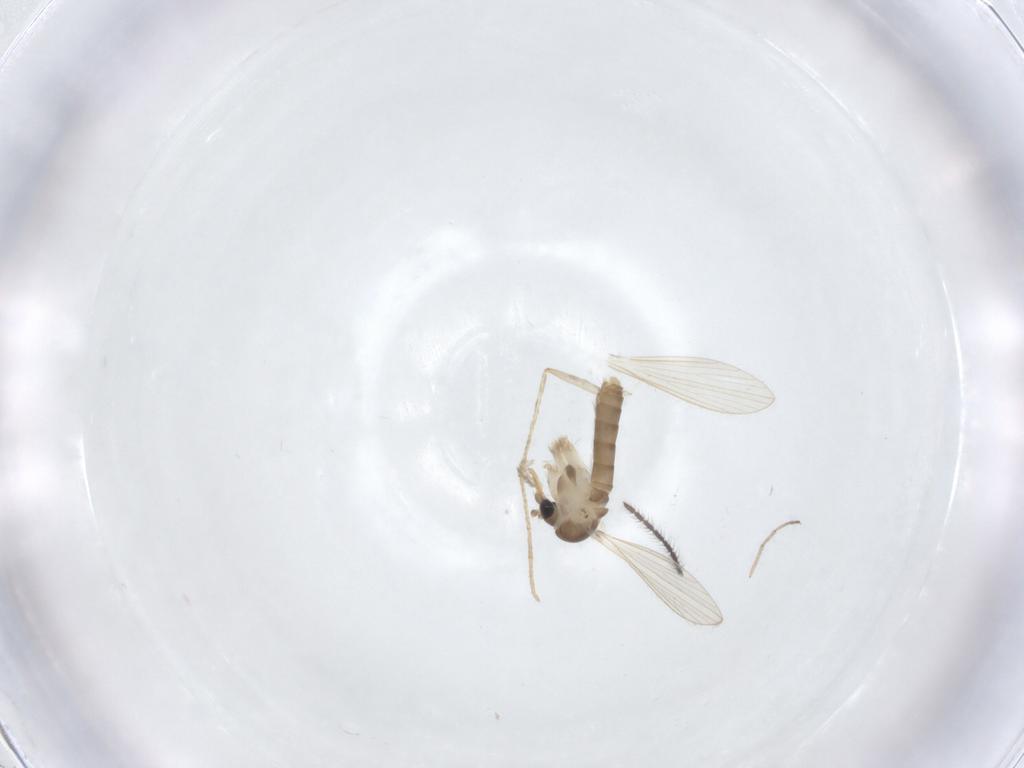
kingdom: Animalia
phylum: Arthropoda
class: Insecta
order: Diptera
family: Psychodidae
